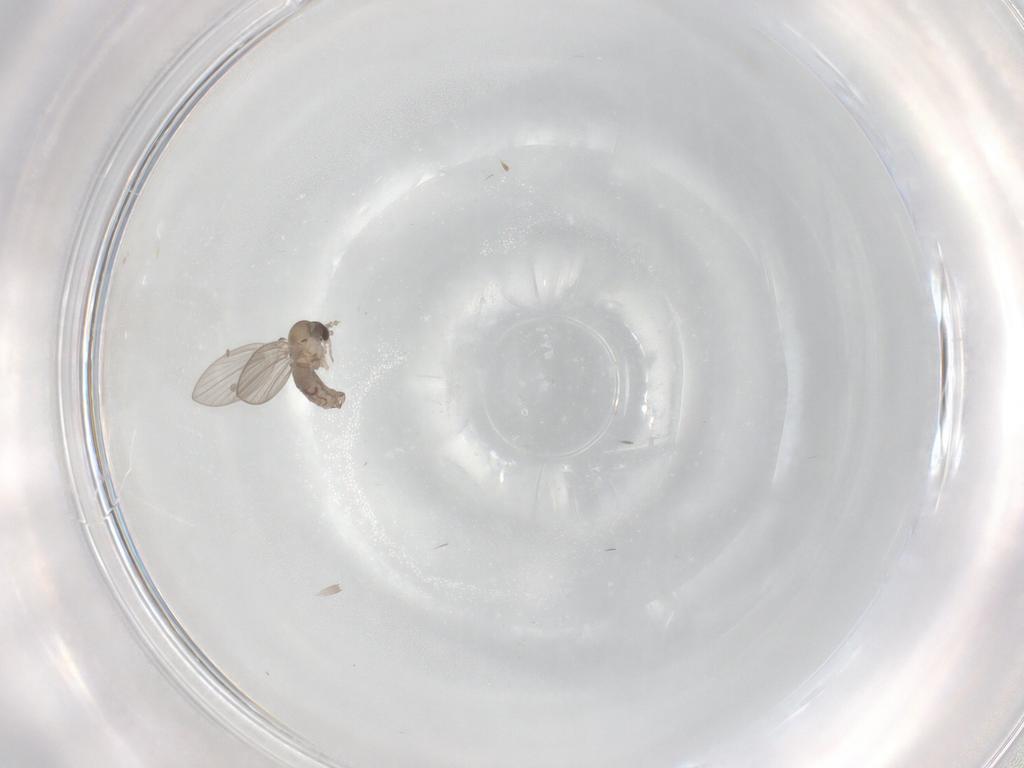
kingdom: Animalia
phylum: Arthropoda
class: Insecta
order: Diptera
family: Psychodidae
